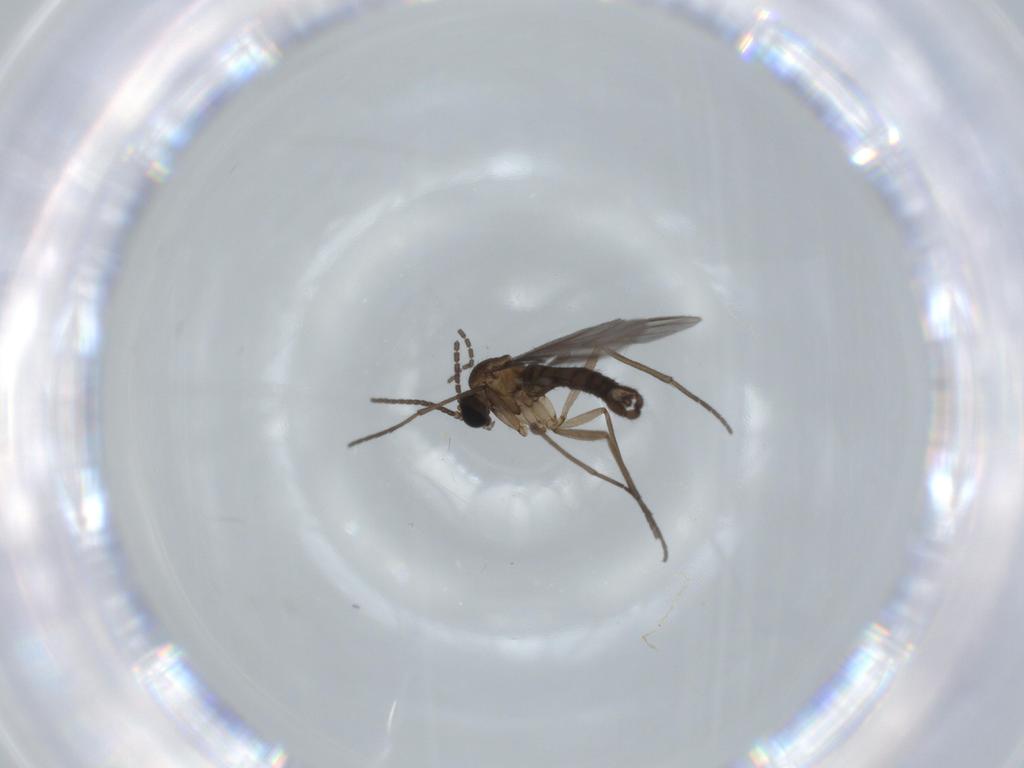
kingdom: Animalia
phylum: Arthropoda
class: Insecta
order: Diptera
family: Sciaridae
